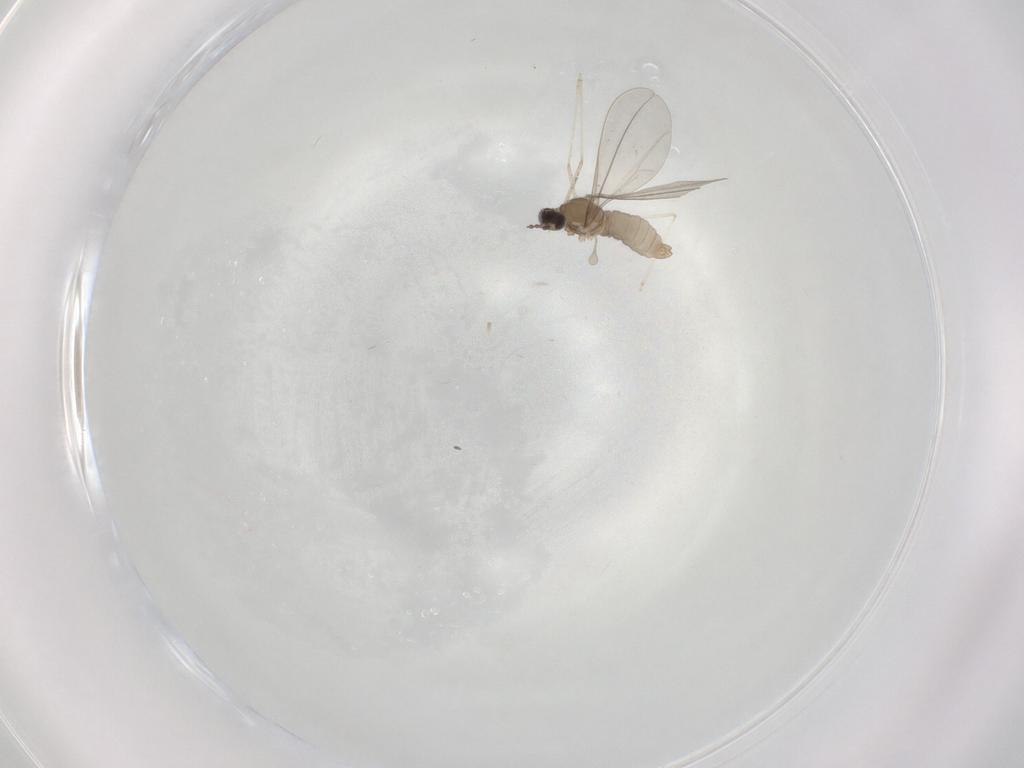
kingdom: Animalia
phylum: Arthropoda
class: Insecta
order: Diptera
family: Cecidomyiidae
